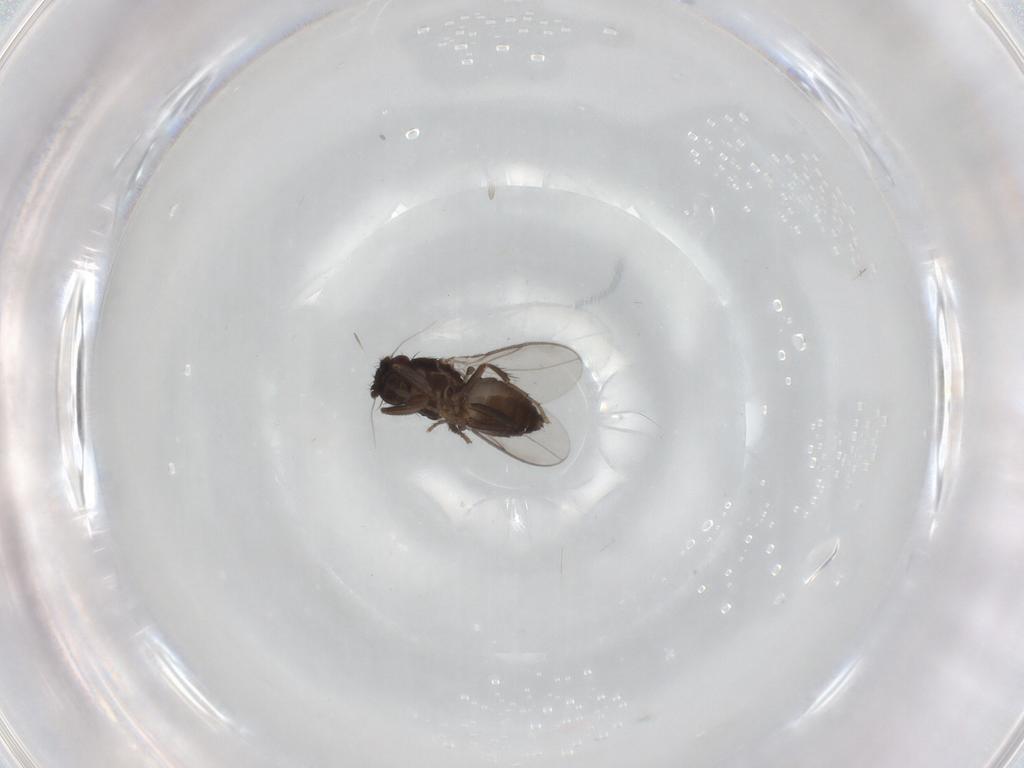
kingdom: Animalia
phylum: Arthropoda
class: Insecta
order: Diptera
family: Sphaeroceridae
